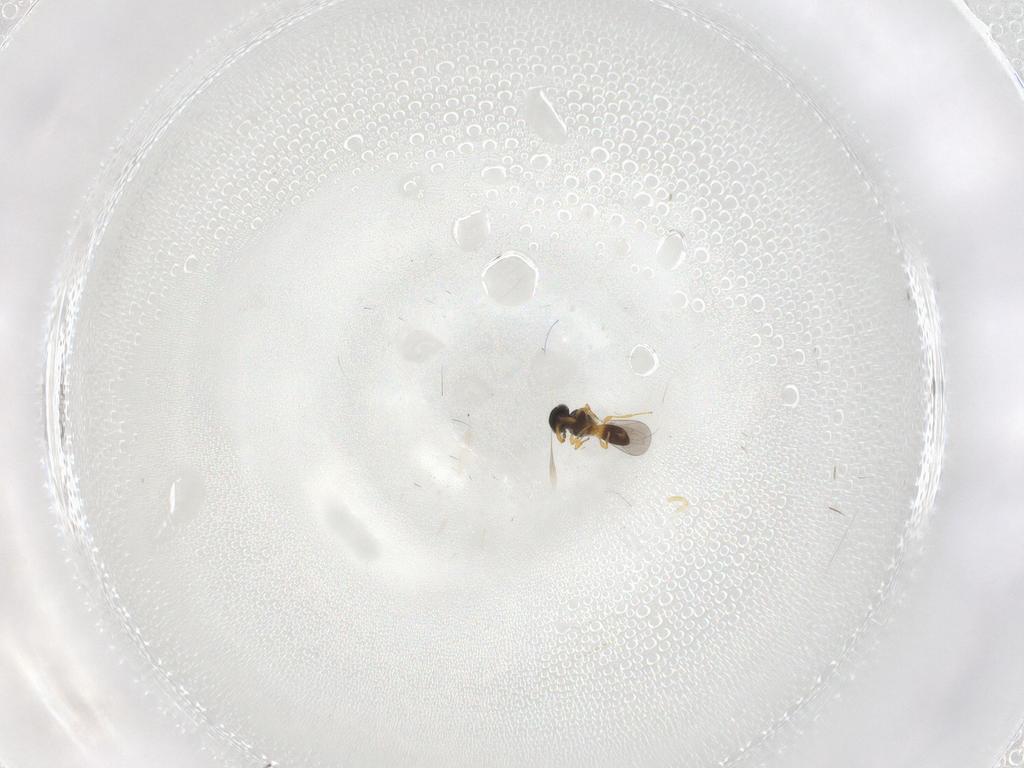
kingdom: Animalia
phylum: Arthropoda
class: Insecta
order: Hymenoptera
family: Platygastridae
